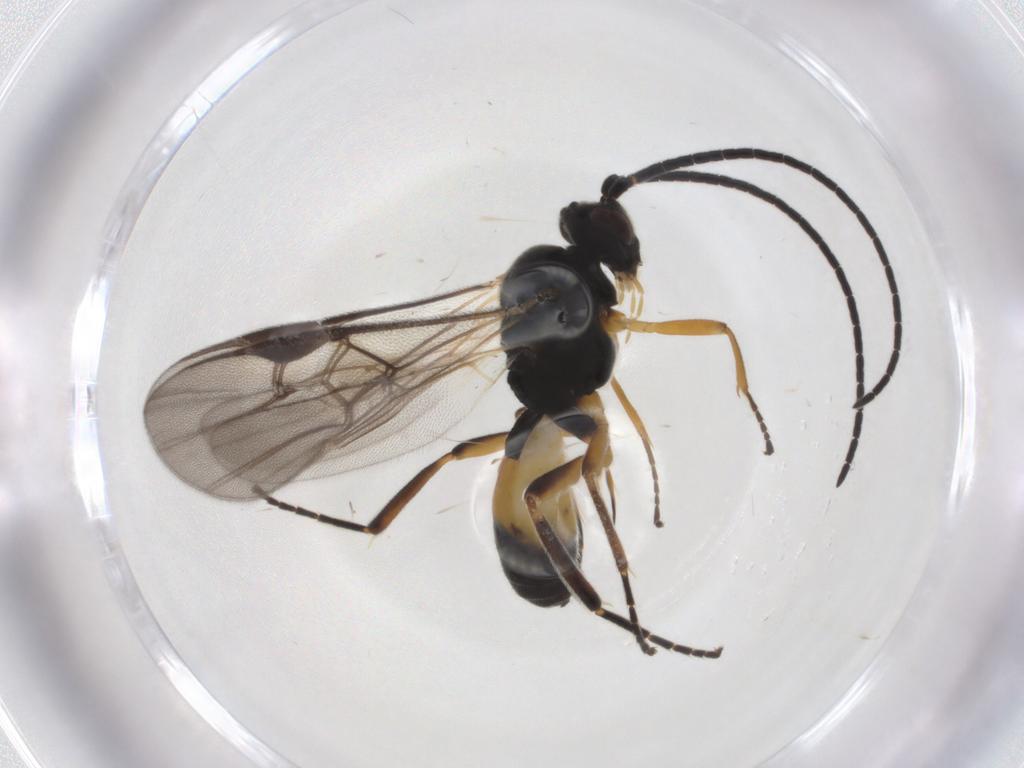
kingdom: Animalia
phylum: Arthropoda
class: Insecta
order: Hymenoptera
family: Braconidae
